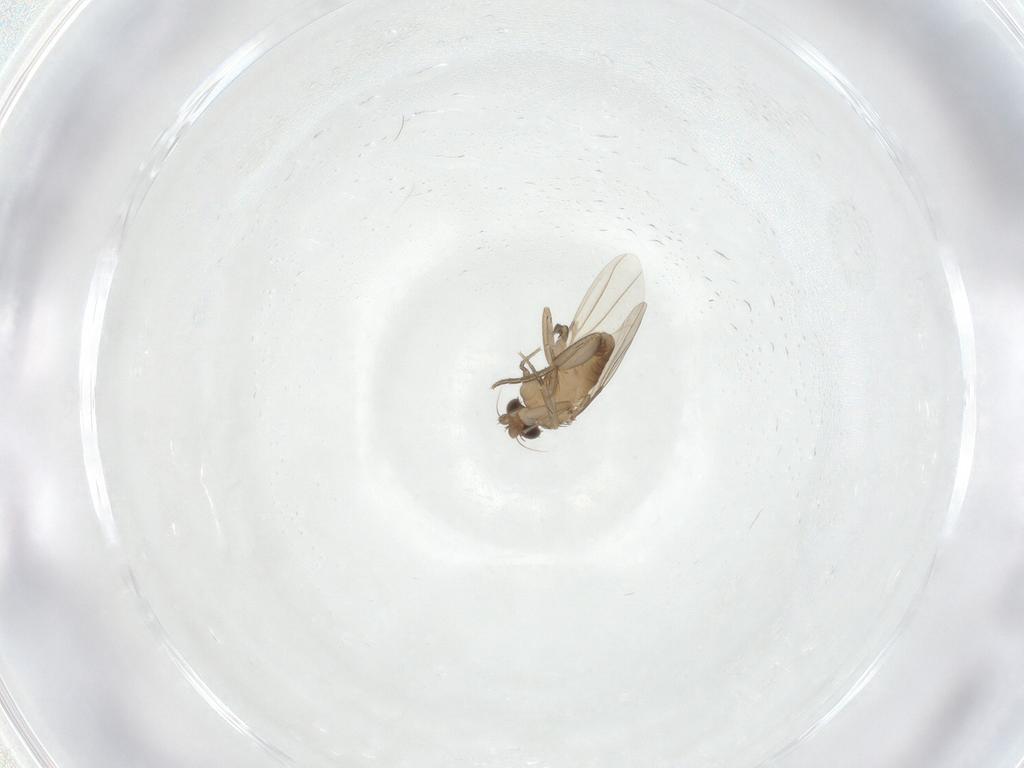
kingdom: Animalia
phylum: Arthropoda
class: Insecta
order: Diptera
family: Phoridae
